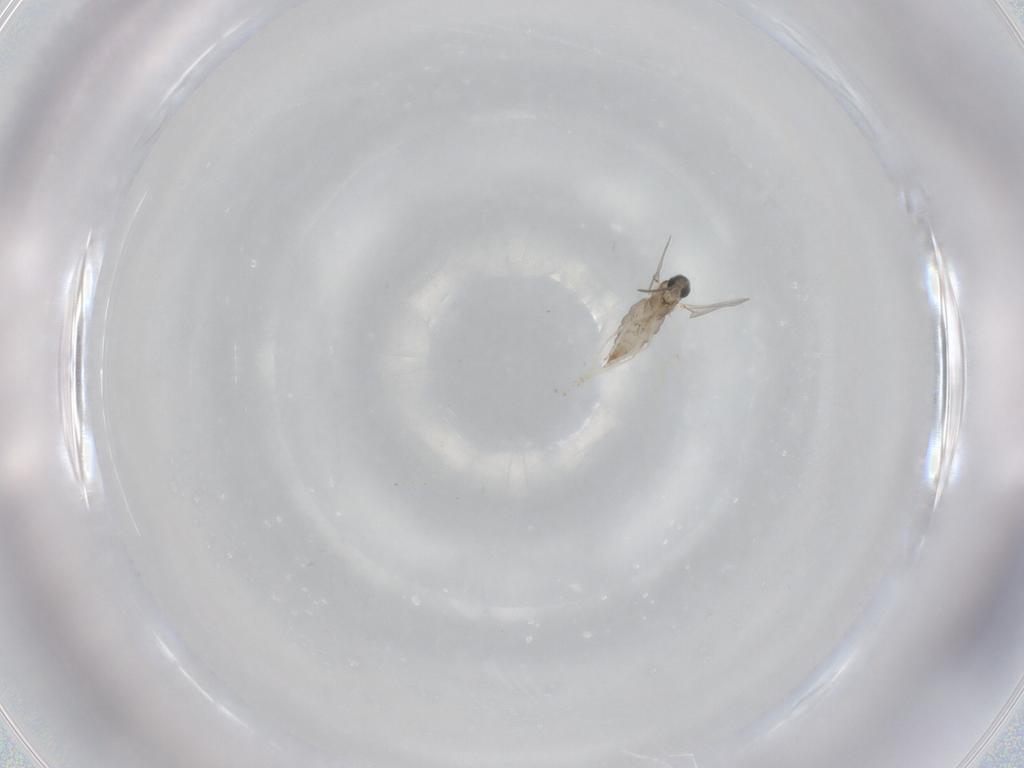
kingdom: Animalia
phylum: Arthropoda
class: Insecta
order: Diptera
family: Cecidomyiidae
